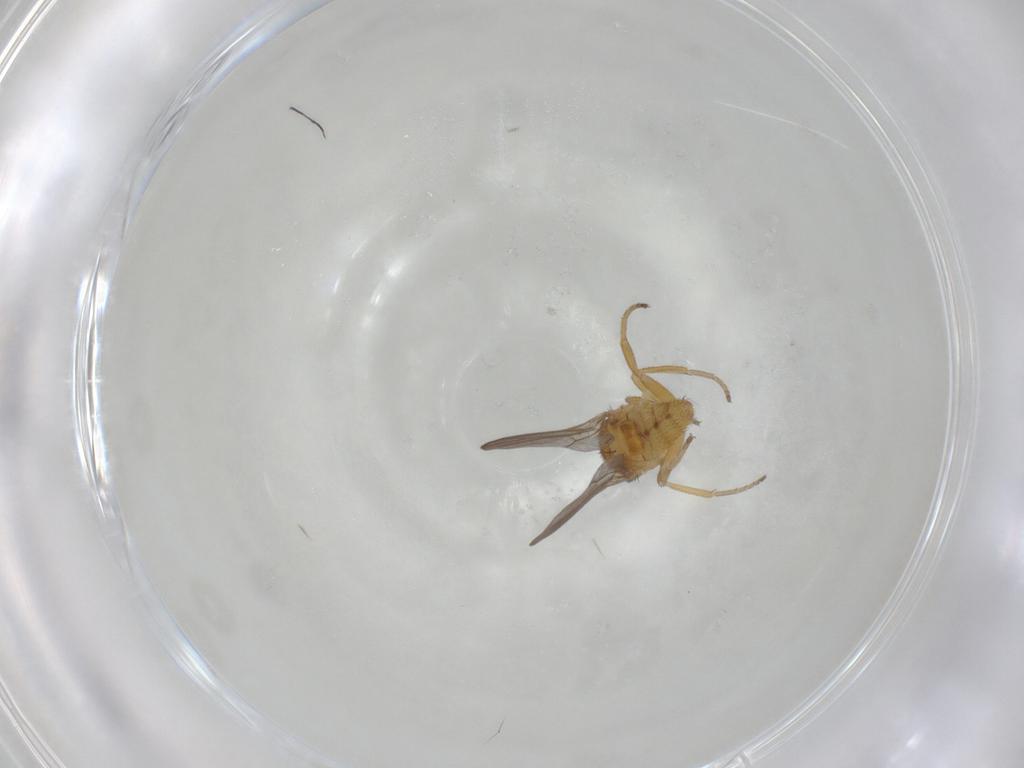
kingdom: Animalia
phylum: Arthropoda
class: Insecta
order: Diptera
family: Chloropidae
